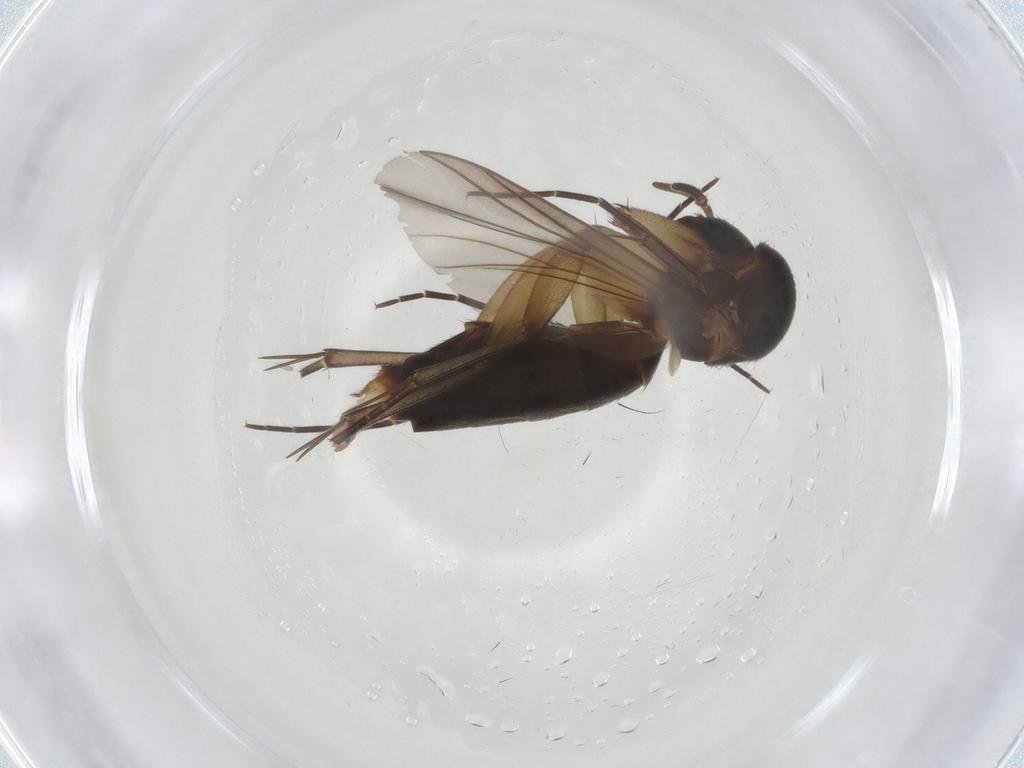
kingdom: Animalia
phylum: Arthropoda
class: Insecta
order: Diptera
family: Mycetophilidae
